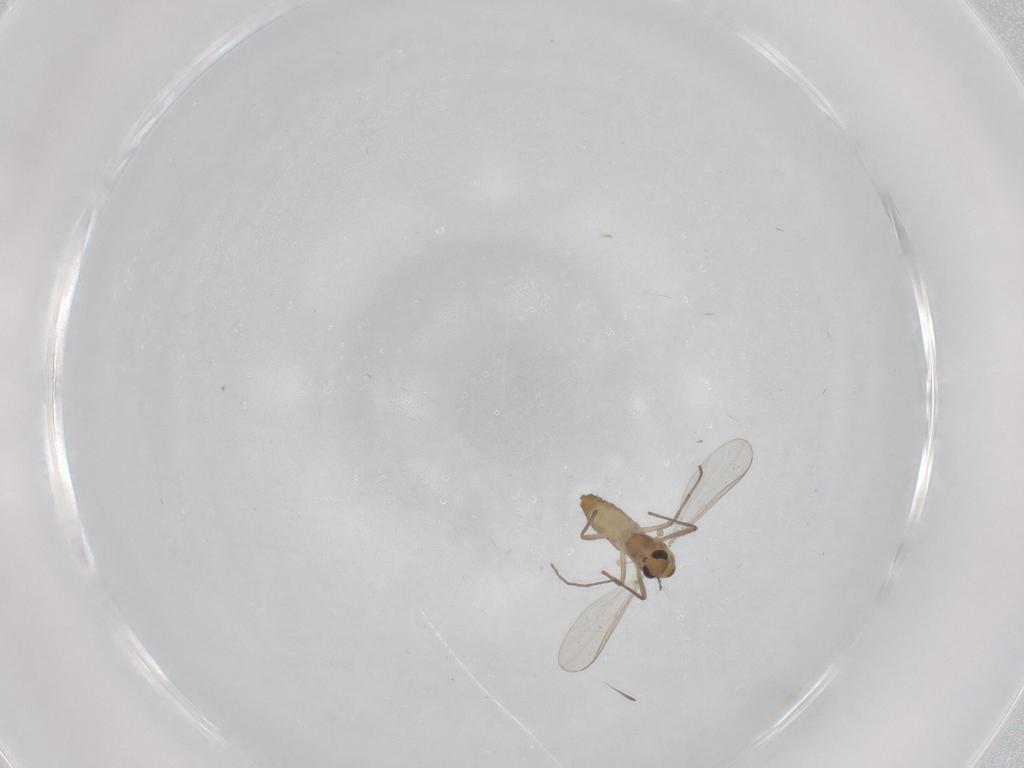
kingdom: Animalia
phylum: Arthropoda
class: Insecta
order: Diptera
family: Chironomidae
